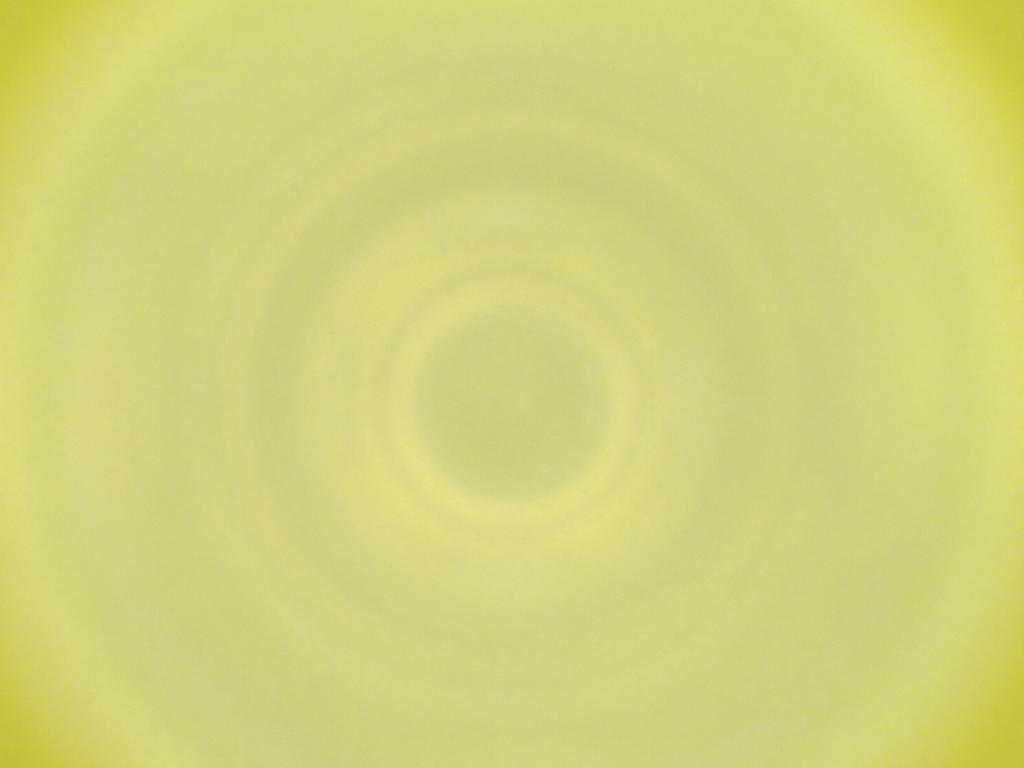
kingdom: Animalia
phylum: Arthropoda
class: Insecta
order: Diptera
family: Cecidomyiidae
